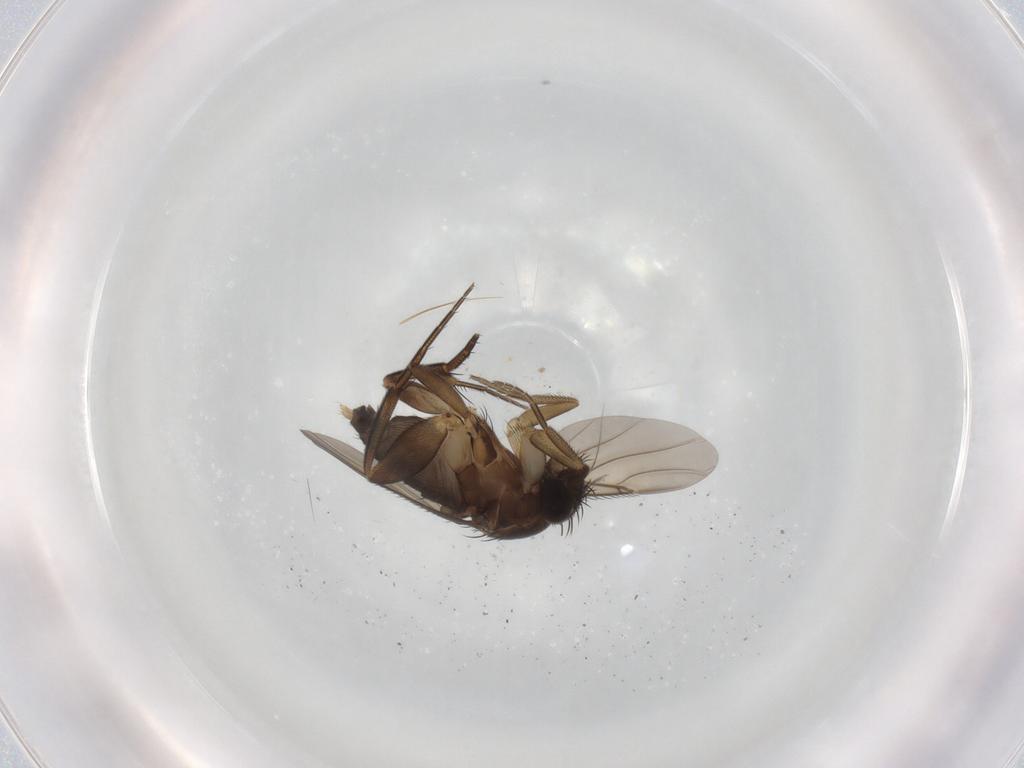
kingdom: Animalia
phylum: Arthropoda
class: Insecta
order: Diptera
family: Phoridae
